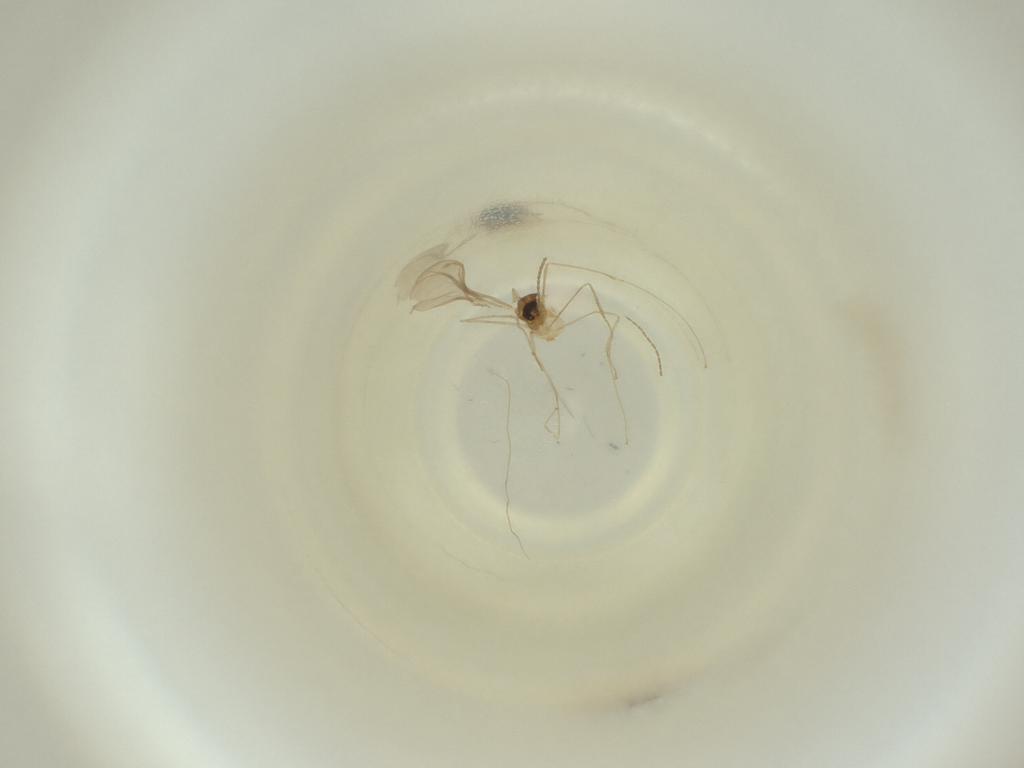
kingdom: Animalia
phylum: Arthropoda
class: Insecta
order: Diptera
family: Cecidomyiidae
